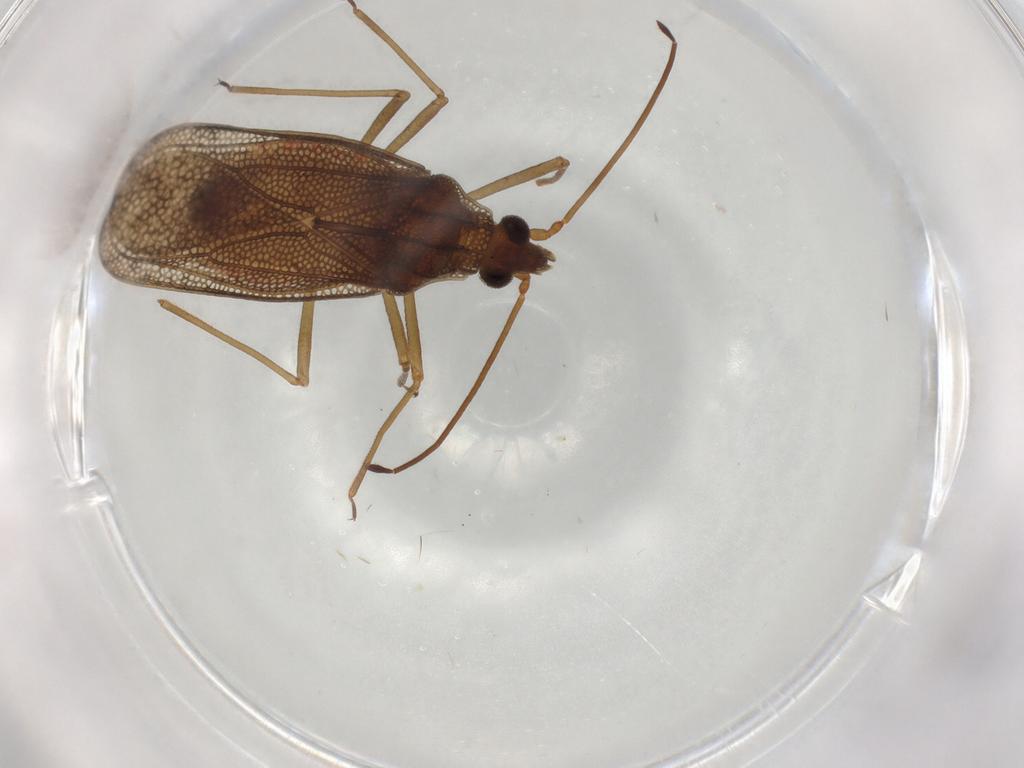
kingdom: Animalia
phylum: Arthropoda
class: Insecta
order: Hemiptera
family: Tingidae
